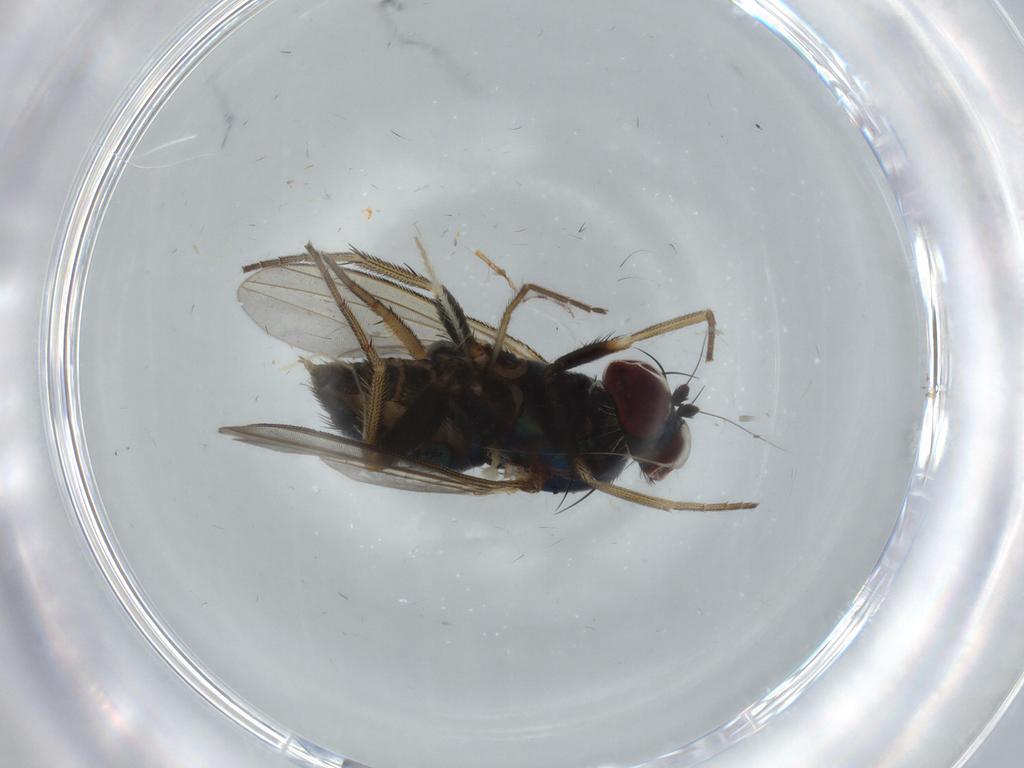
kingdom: Animalia
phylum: Arthropoda
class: Insecta
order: Diptera
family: Dolichopodidae
